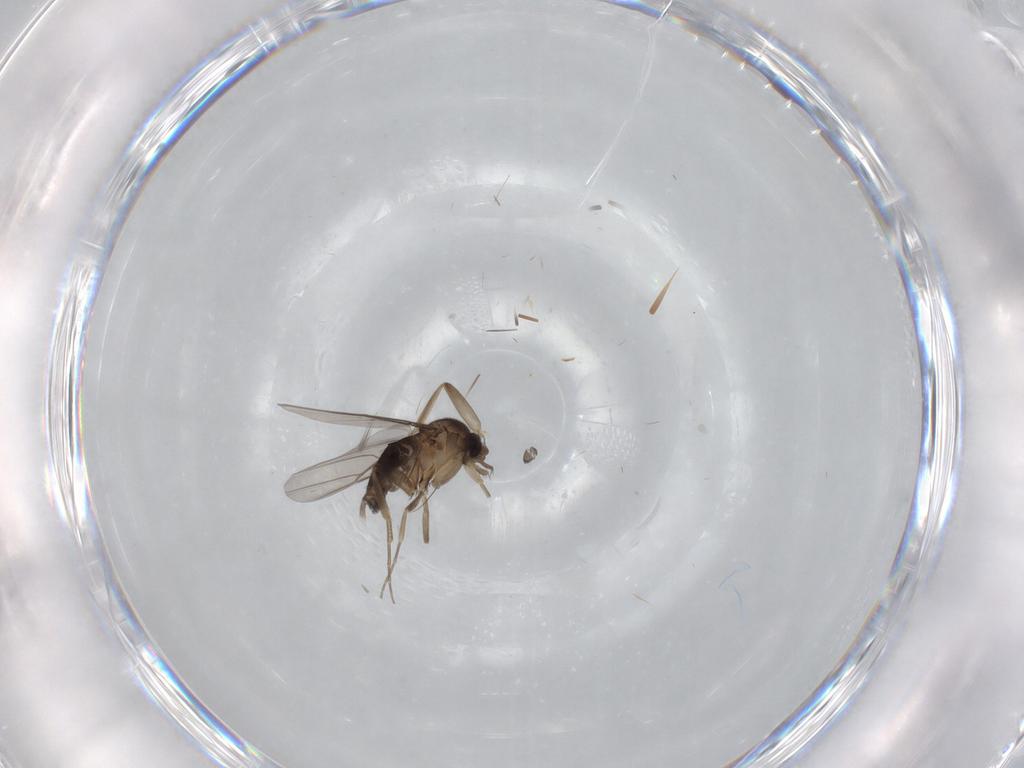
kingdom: Animalia
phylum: Arthropoda
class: Insecta
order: Diptera
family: Phoridae
